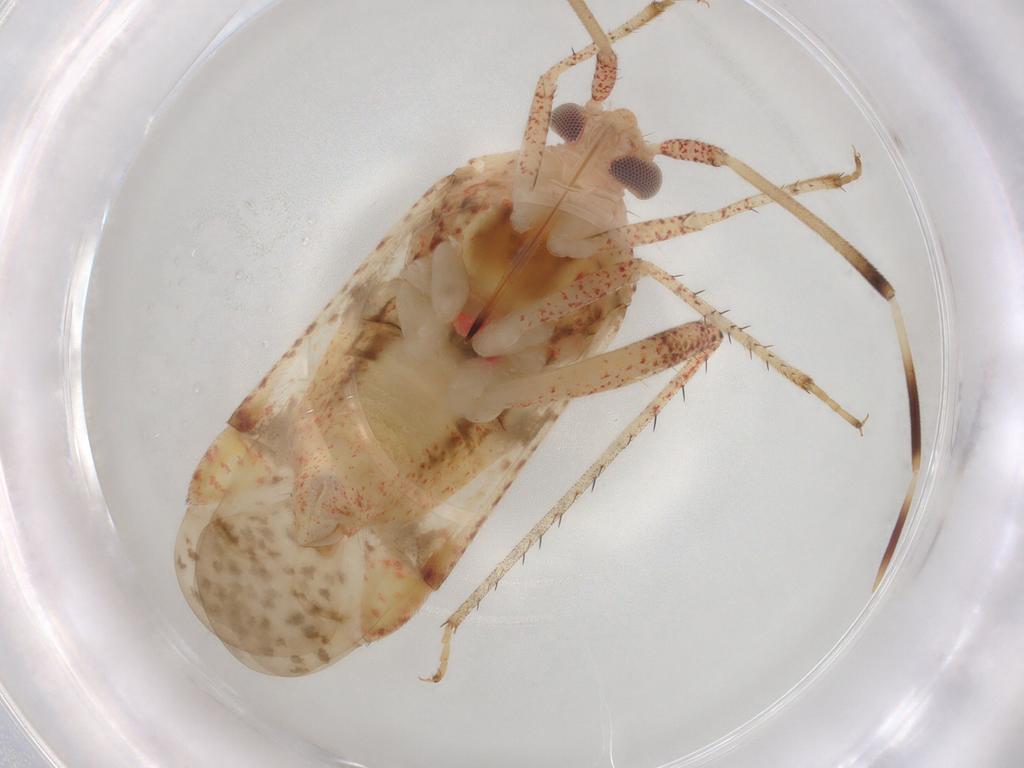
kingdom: Animalia
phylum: Arthropoda
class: Insecta
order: Hemiptera
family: Miridae
